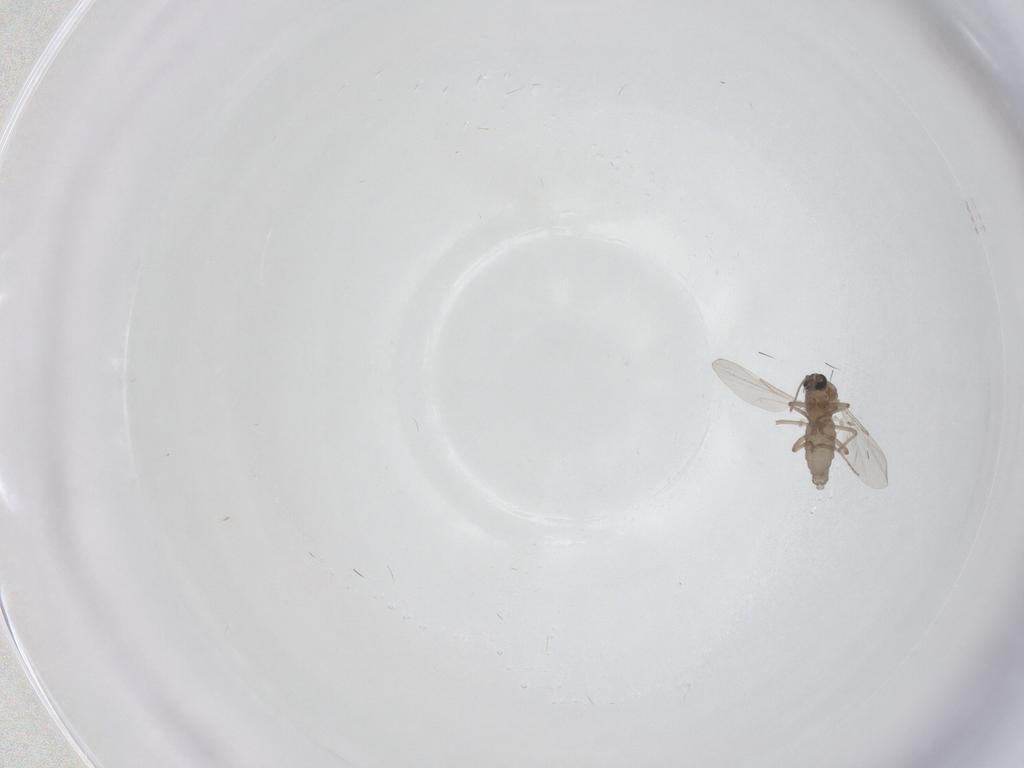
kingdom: Animalia
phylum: Arthropoda
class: Insecta
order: Diptera
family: Ceratopogonidae
